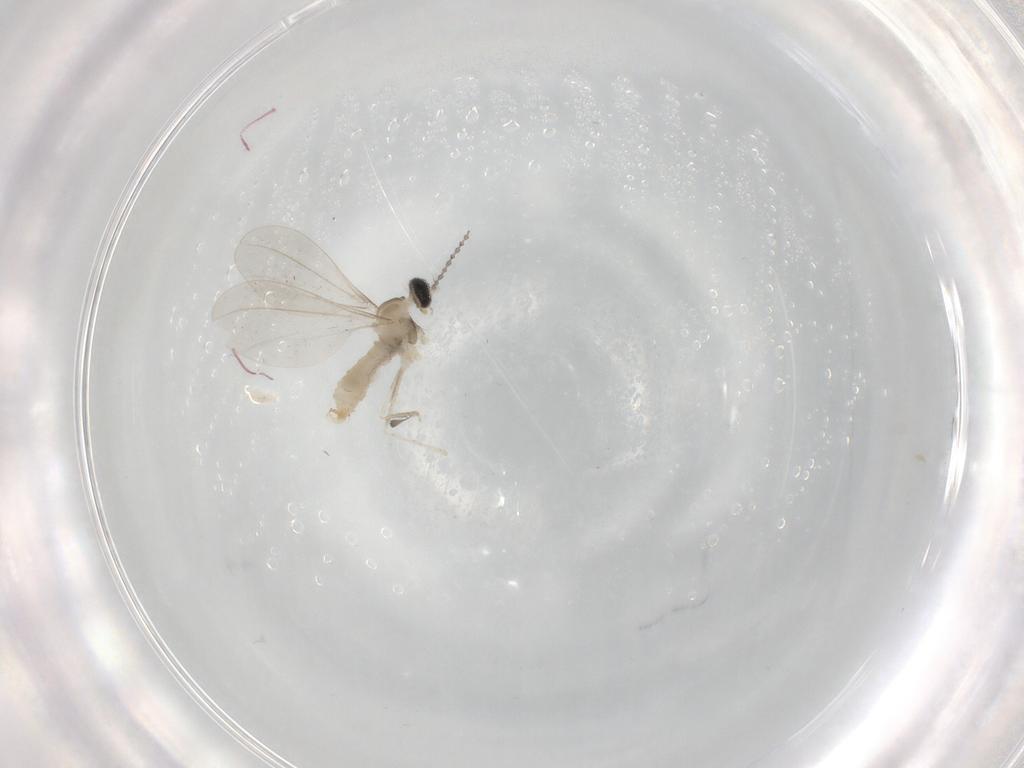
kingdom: Animalia
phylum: Arthropoda
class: Insecta
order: Diptera
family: Cecidomyiidae
